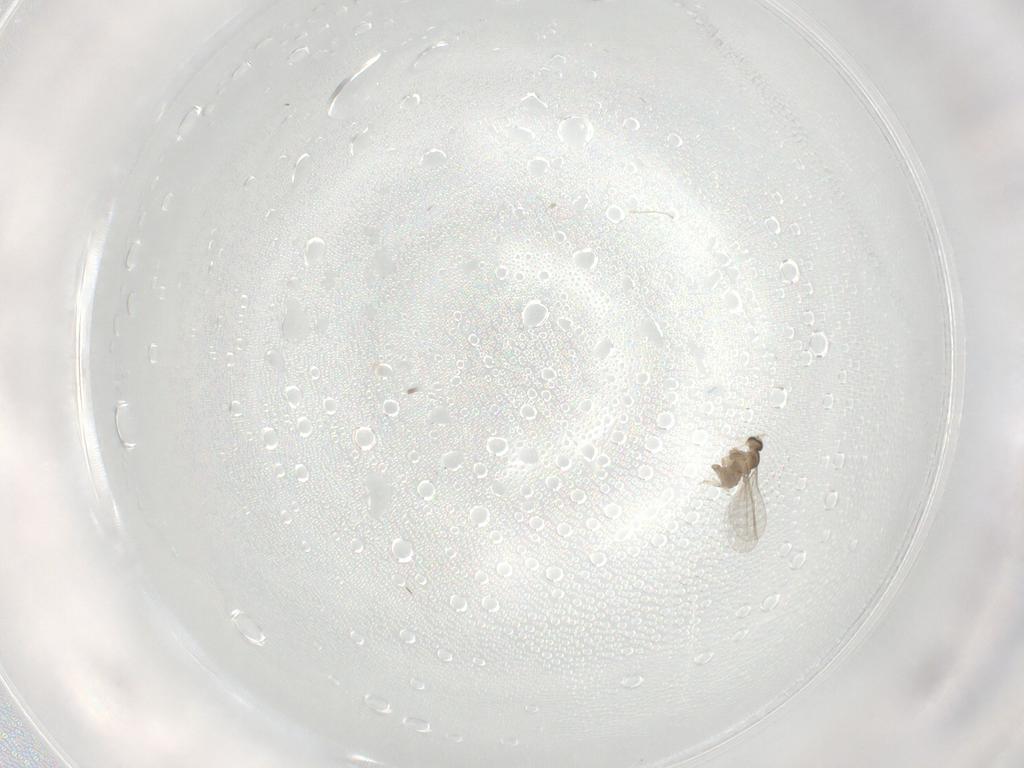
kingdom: Animalia
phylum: Arthropoda
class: Insecta
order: Diptera
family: Cecidomyiidae
